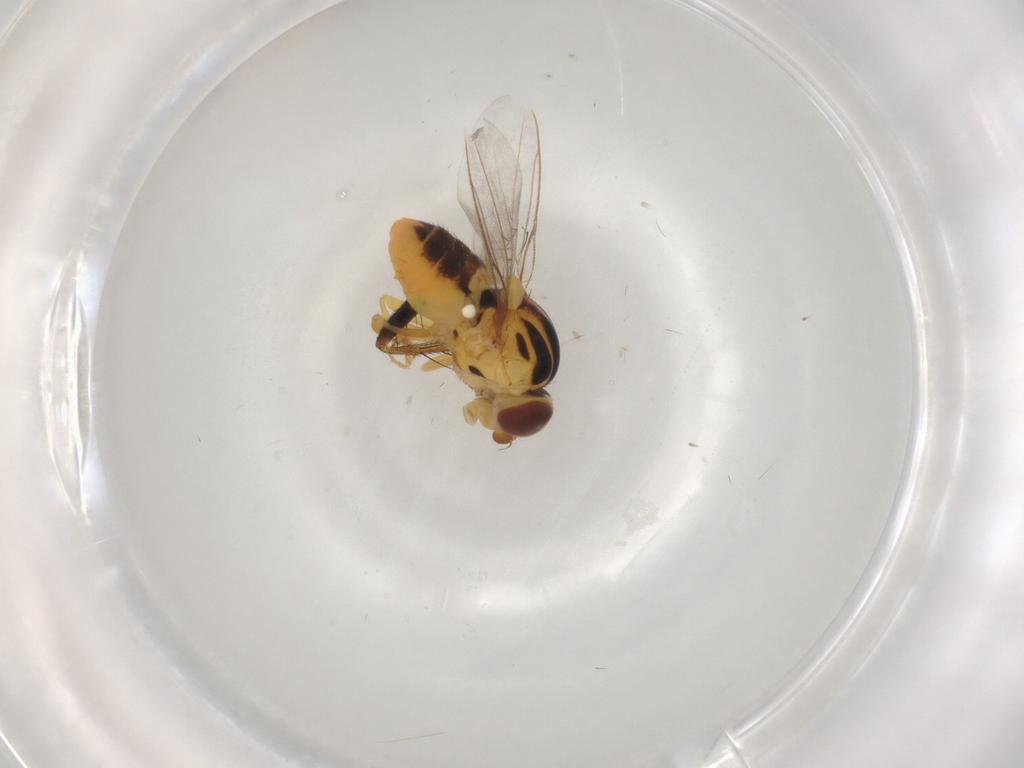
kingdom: Animalia
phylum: Arthropoda
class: Insecta
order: Diptera
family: Chloropidae
